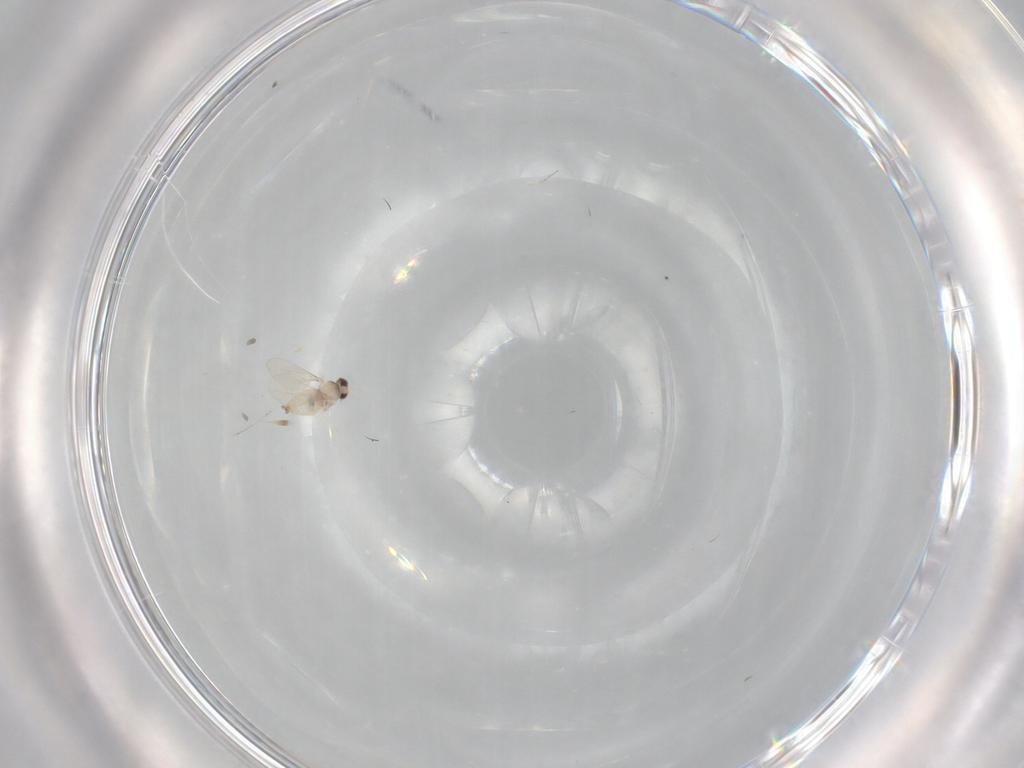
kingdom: Animalia
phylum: Arthropoda
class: Insecta
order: Diptera
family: Cecidomyiidae
